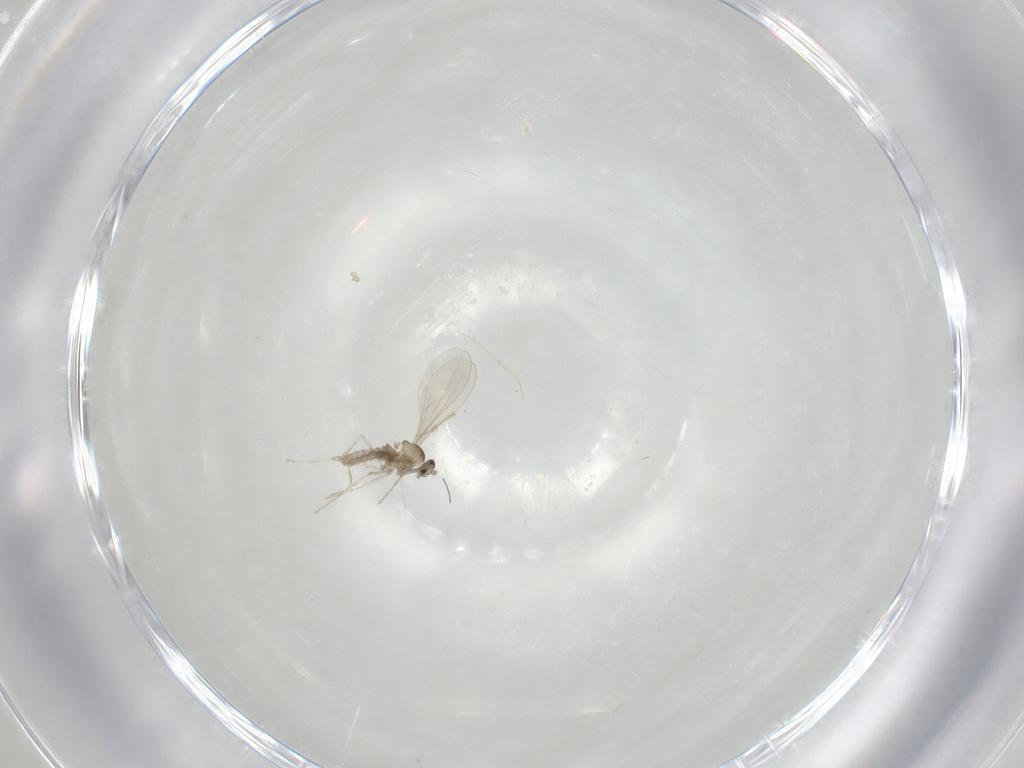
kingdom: Animalia
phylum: Arthropoda
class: Insecta
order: Diptera
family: Cecidomyiidae
